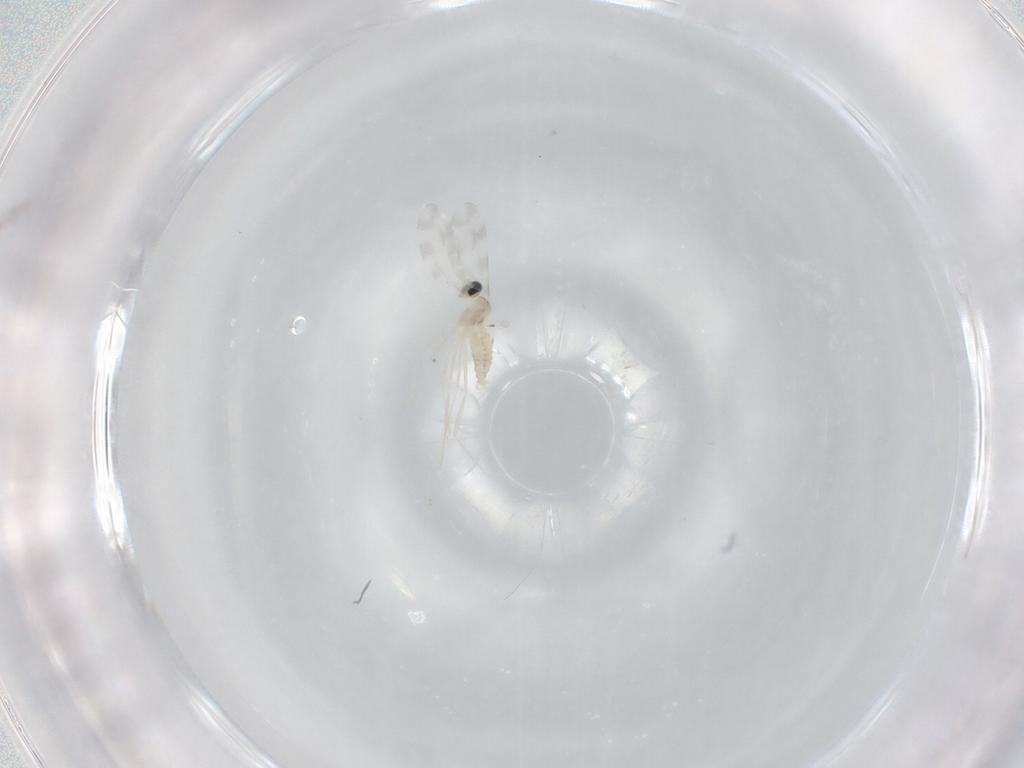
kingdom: Animalia
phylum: Arthropoda
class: Insecta
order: Diptera
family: Cecidomyiidae
